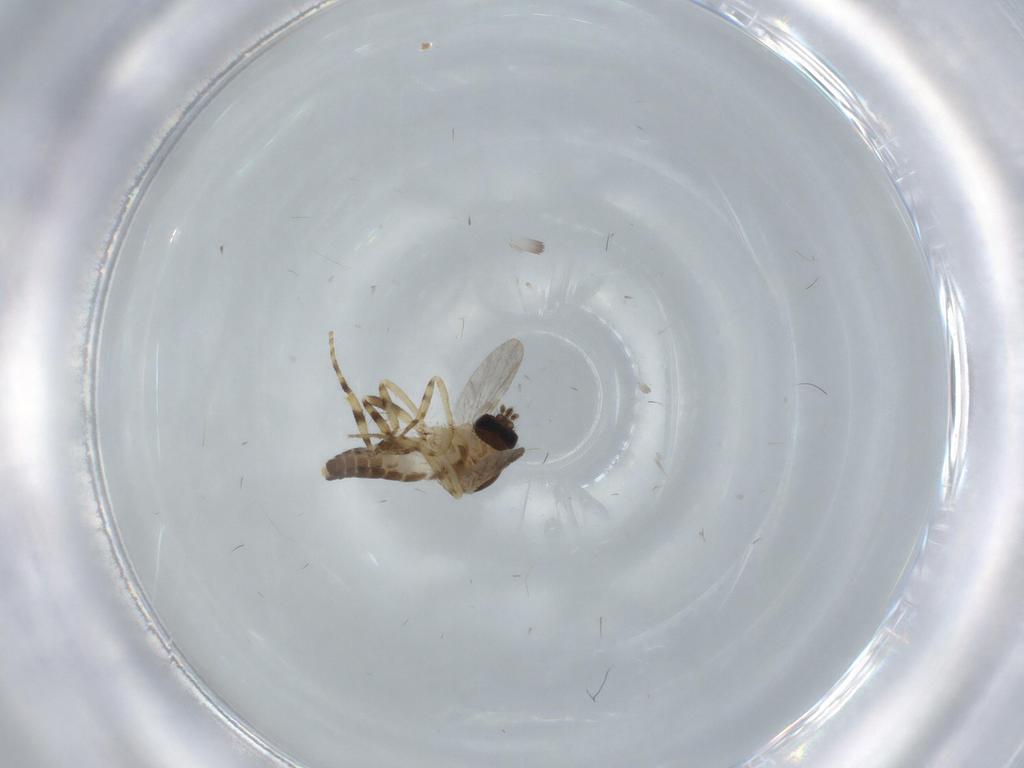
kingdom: Animalia
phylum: Arthropoda
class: Insecta
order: Diptera
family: Ceratopogonidae
